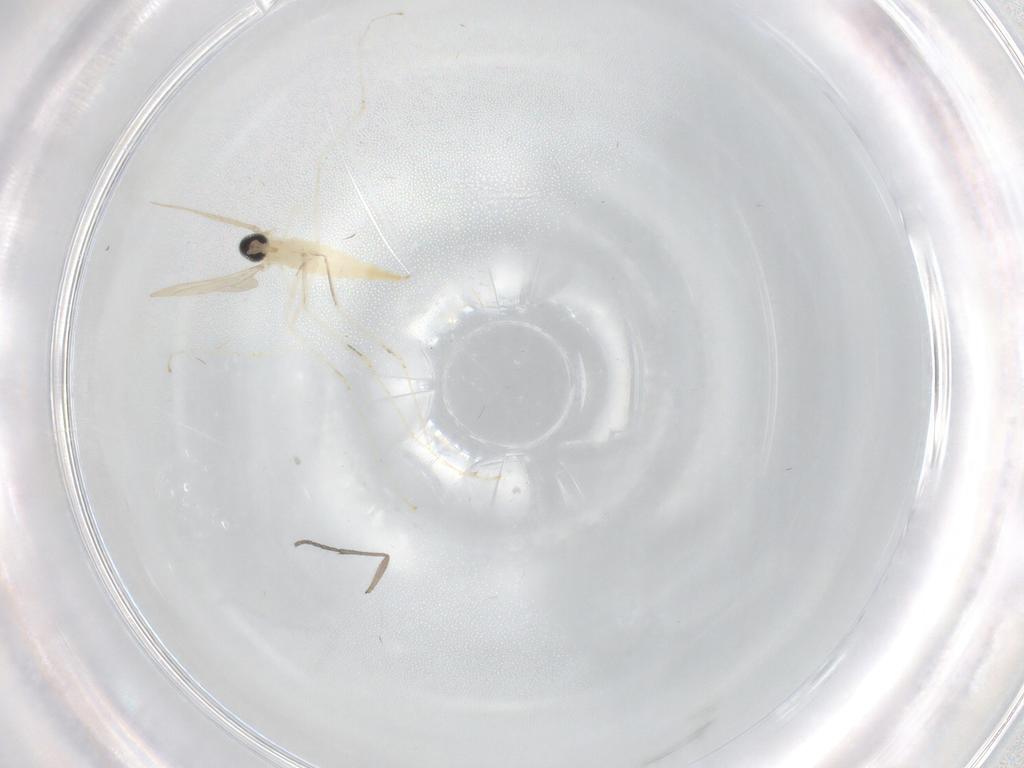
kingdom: Animalia
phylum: Arthropoda
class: Insecta
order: Diptera
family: Sciaridae
